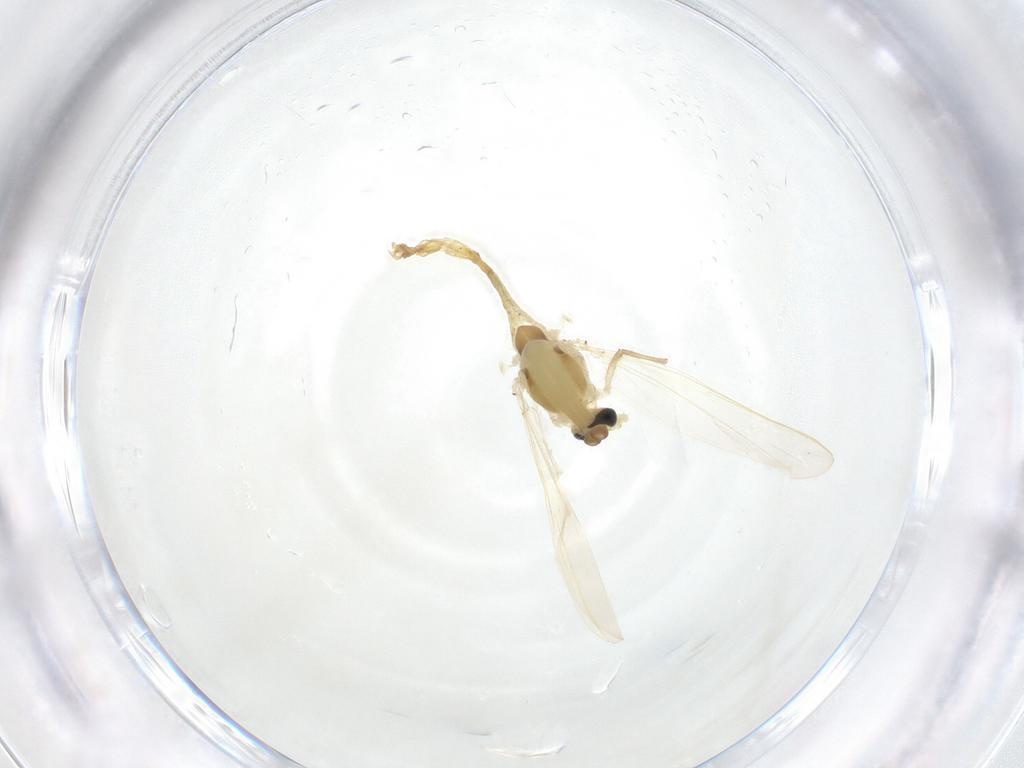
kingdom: Animalia
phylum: Arthropoda
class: Insecta
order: Diptera
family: Chironomidae
